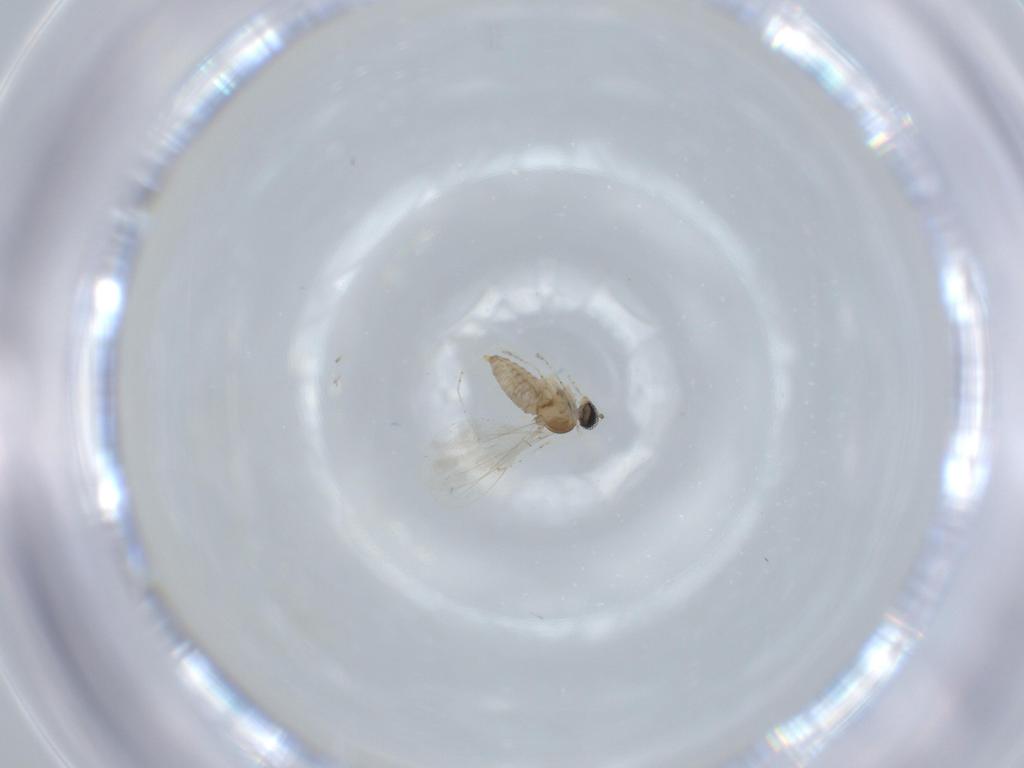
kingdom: Animalia
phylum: Arthropoda
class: Insecta
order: Diptera
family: Cecidomyiidae
